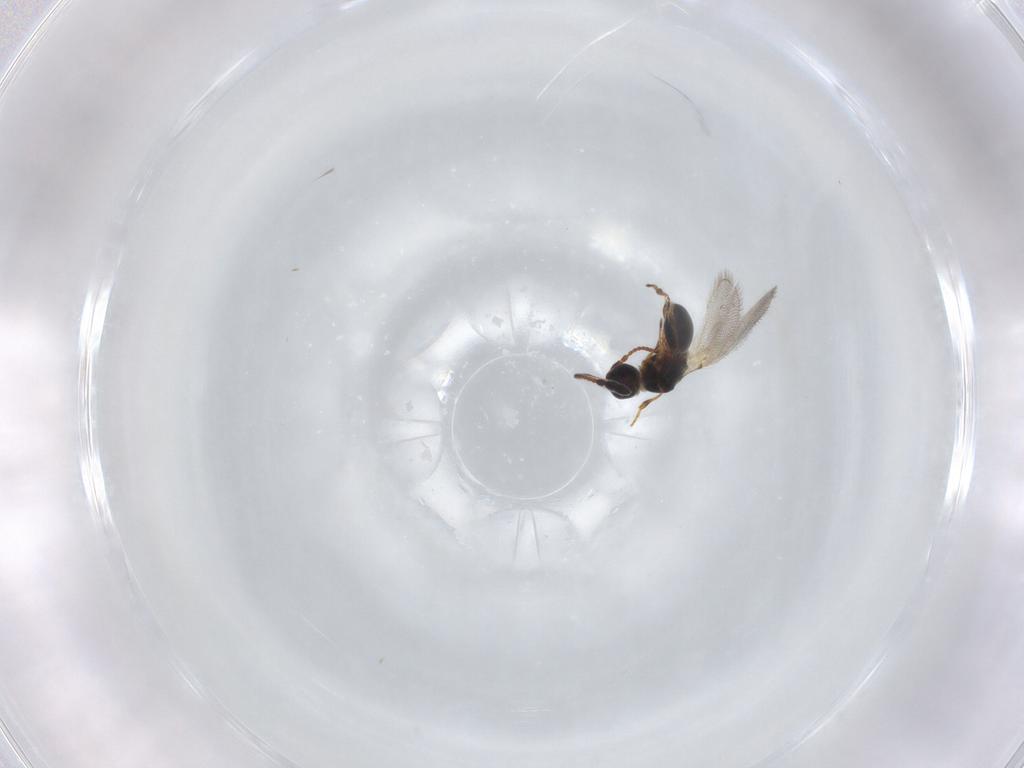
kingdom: Animalia
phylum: Arthropoda
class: Insecta
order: Hymenoptera
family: Diapriidae
